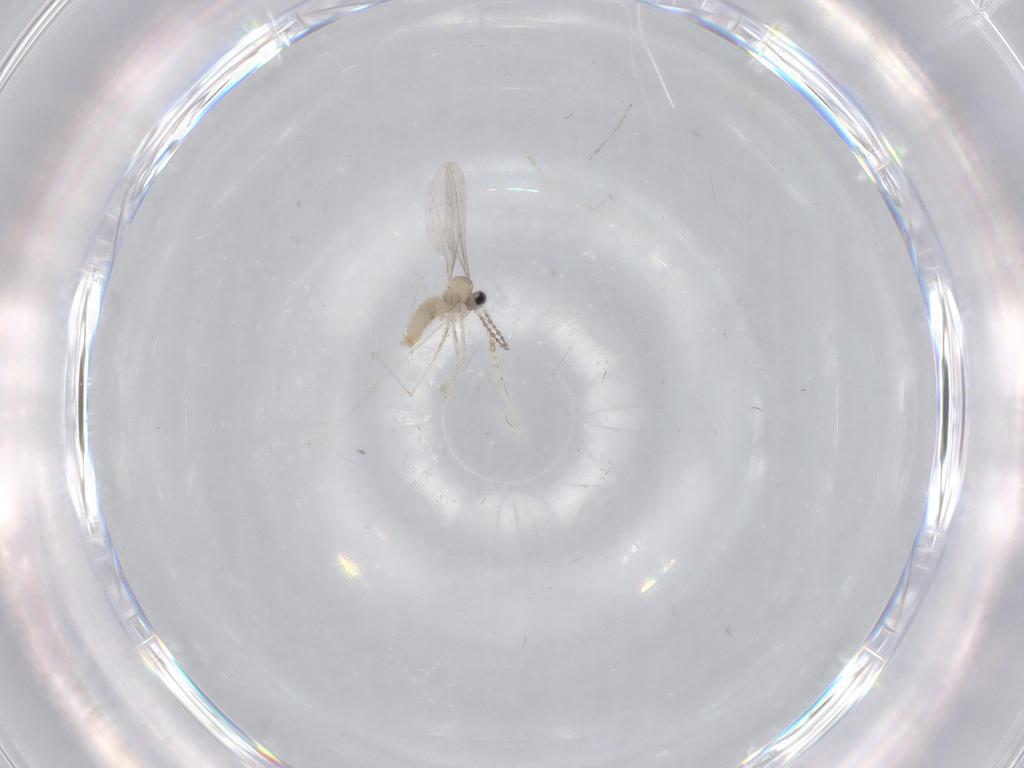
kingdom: Animalia
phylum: Arthropoda
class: Insecta
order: Diptera
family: Cecidomyiidae
